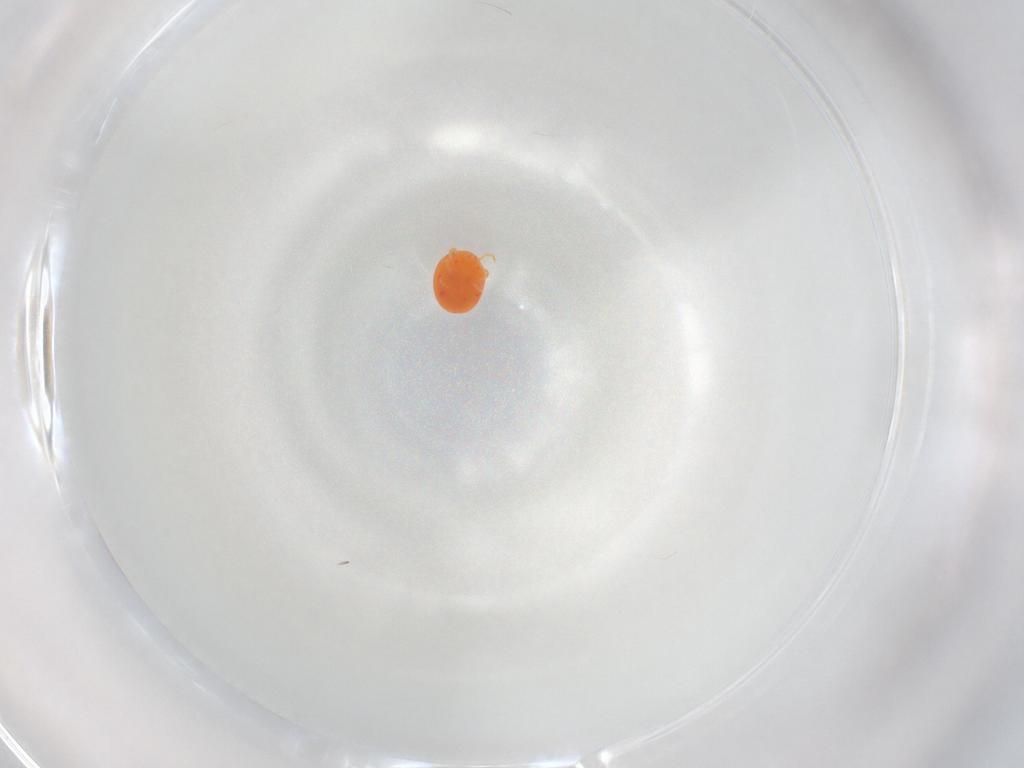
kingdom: Animalia
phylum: Arthropoda
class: Arachnida
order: Trombidiformes
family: Hydryphantidae
